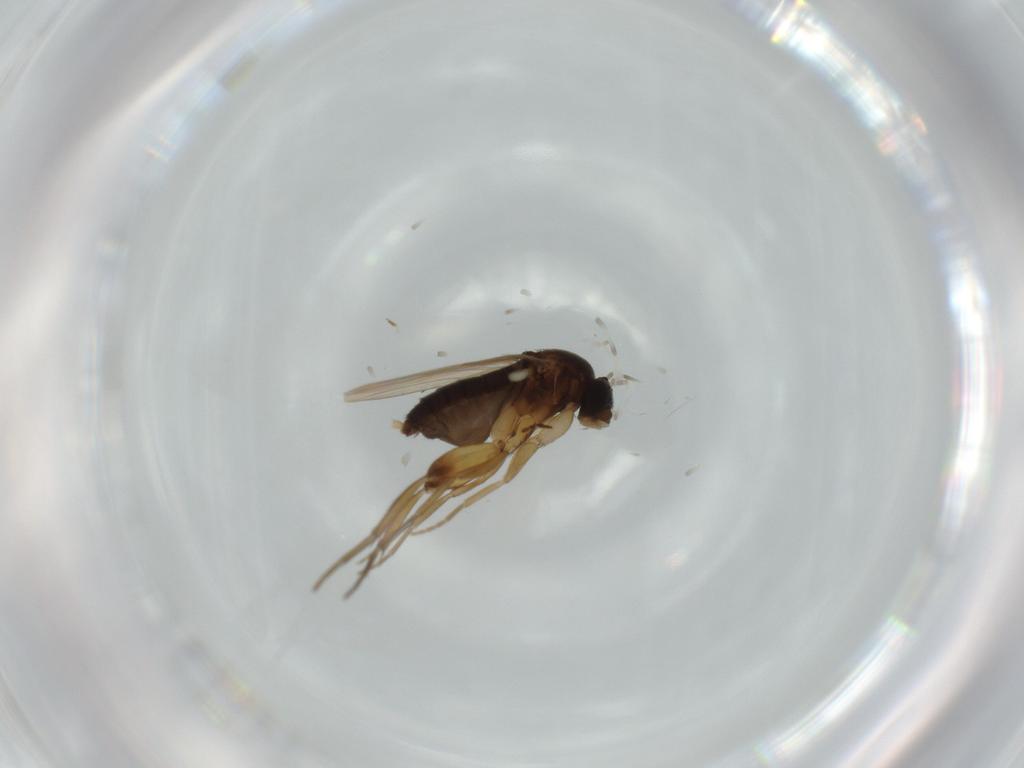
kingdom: Animalia
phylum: Arthropoda
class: Insecta
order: Diptera
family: Phoridae
